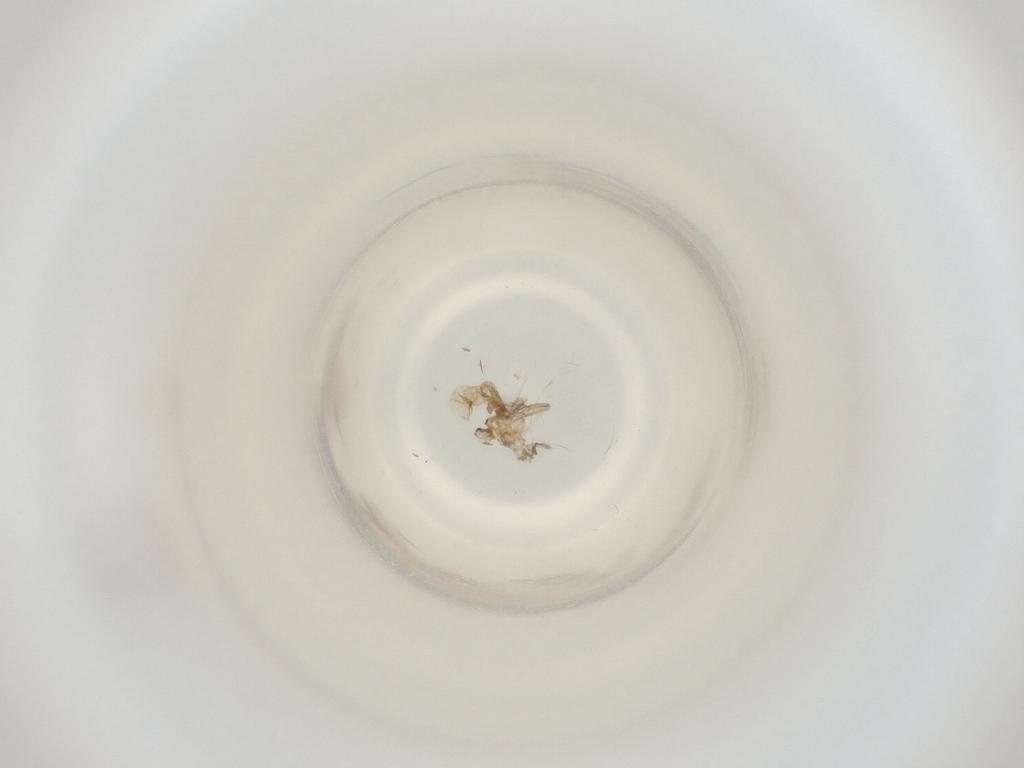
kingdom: Animalia
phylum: Arthropoda
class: Insecta
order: Diptera
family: Cecidomyiidae
